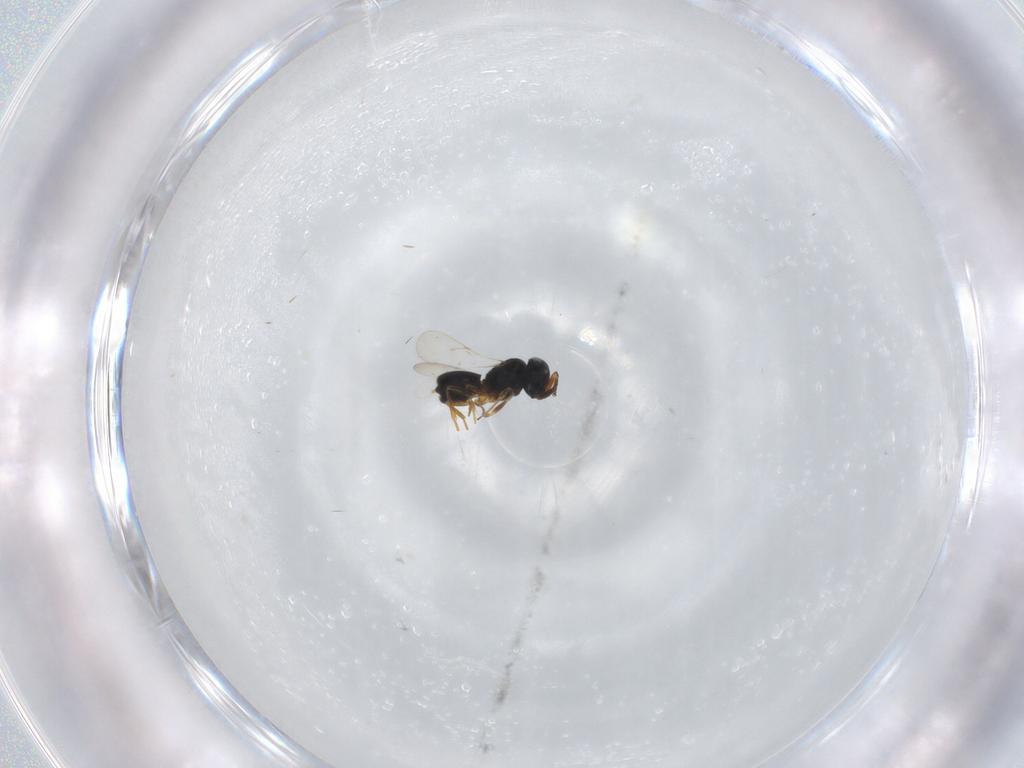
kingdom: Animalia
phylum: Arthropoda
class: Insecta
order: Hymenoptera
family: Scelionidae
